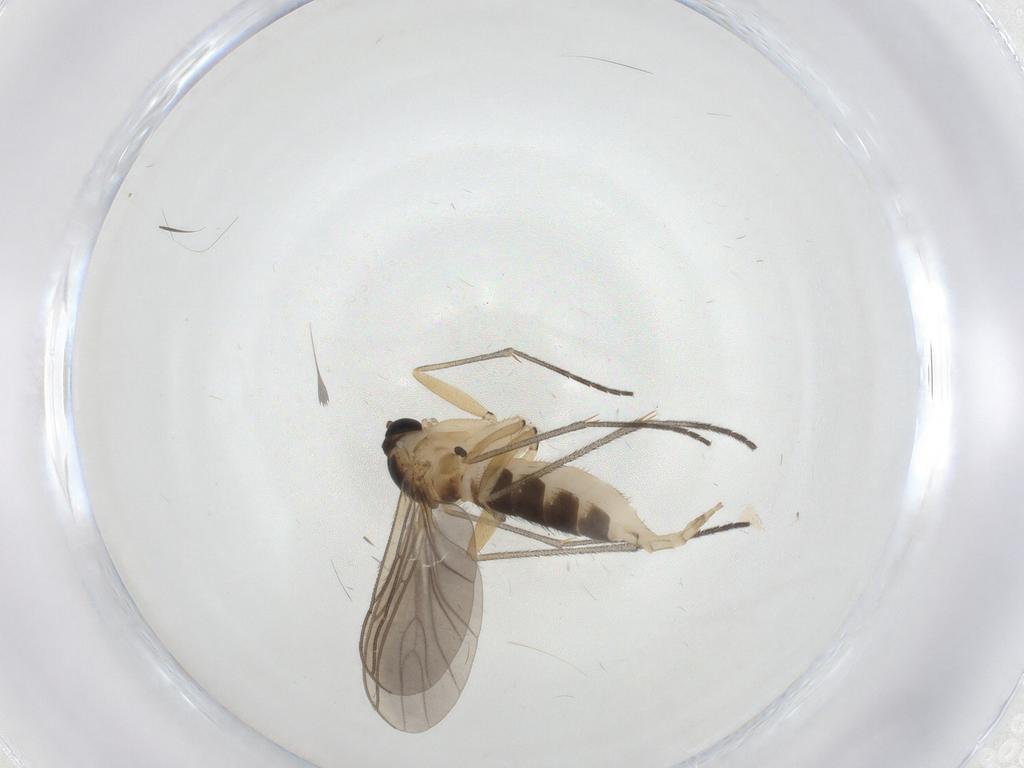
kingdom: Animalia
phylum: Arthropoda
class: Insecta
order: Diptera
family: Sciaridae
